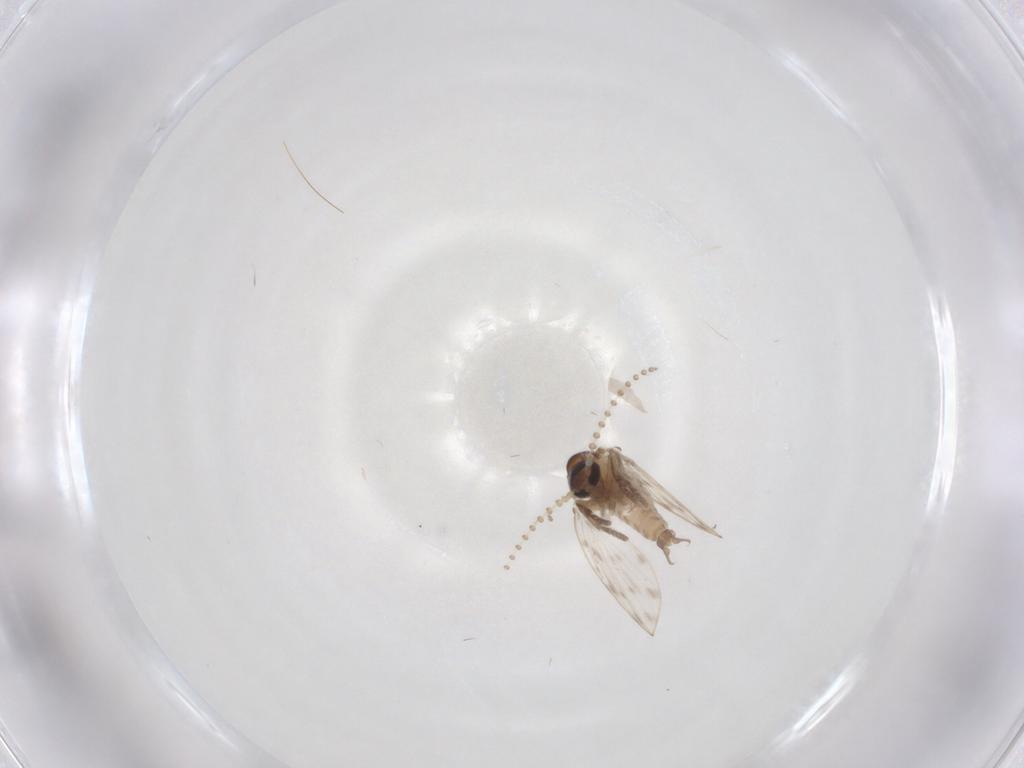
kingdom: Animalia
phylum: Arthropoda
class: Insecta
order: Diptera
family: Psychodidae
